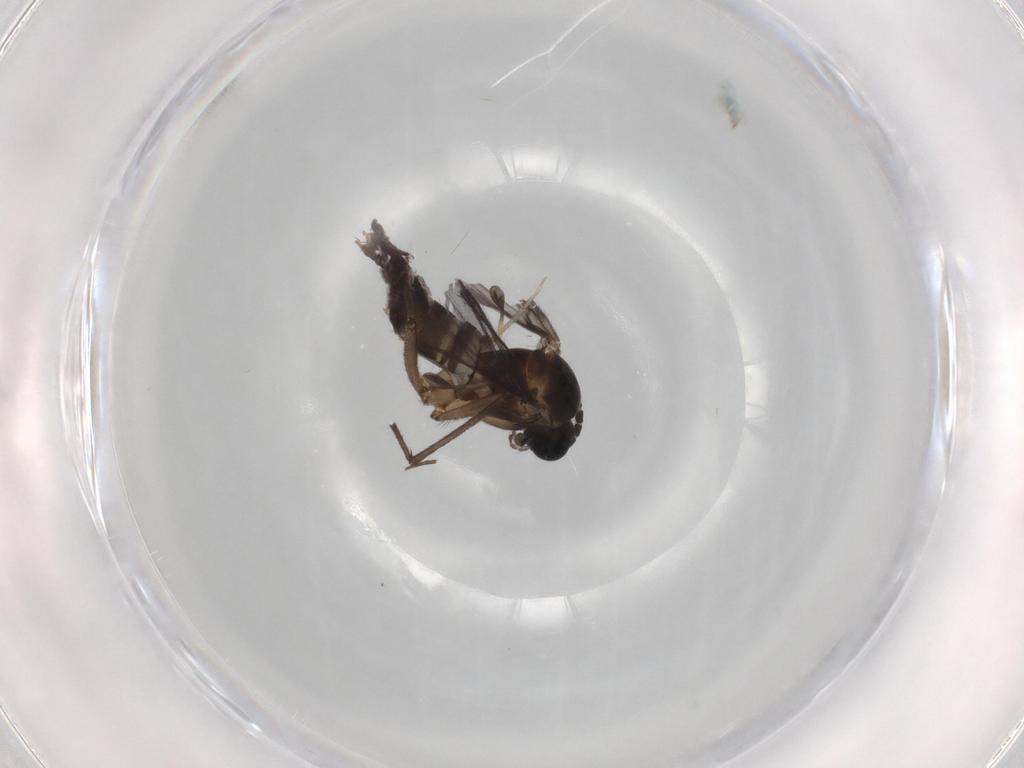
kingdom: Animalia
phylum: Arthropoda
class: Insecta
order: Diptera
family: Sciaridae
